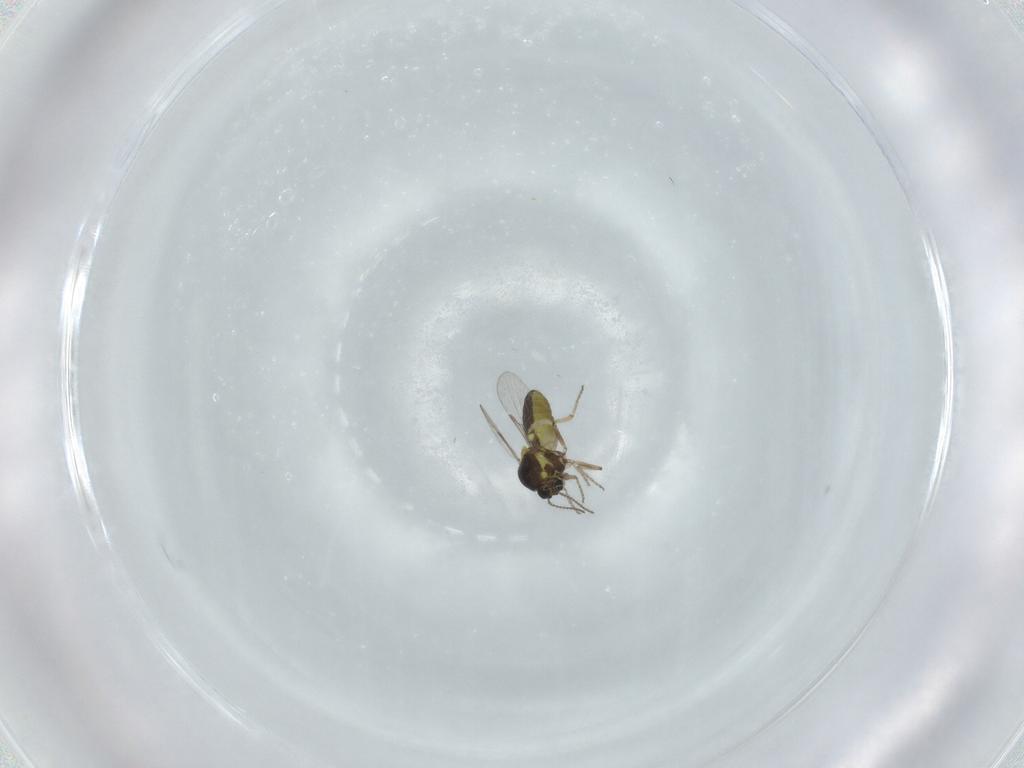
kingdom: Animalia
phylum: Arthropoda
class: Insecta
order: Diptera
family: Ceratopogonidae
